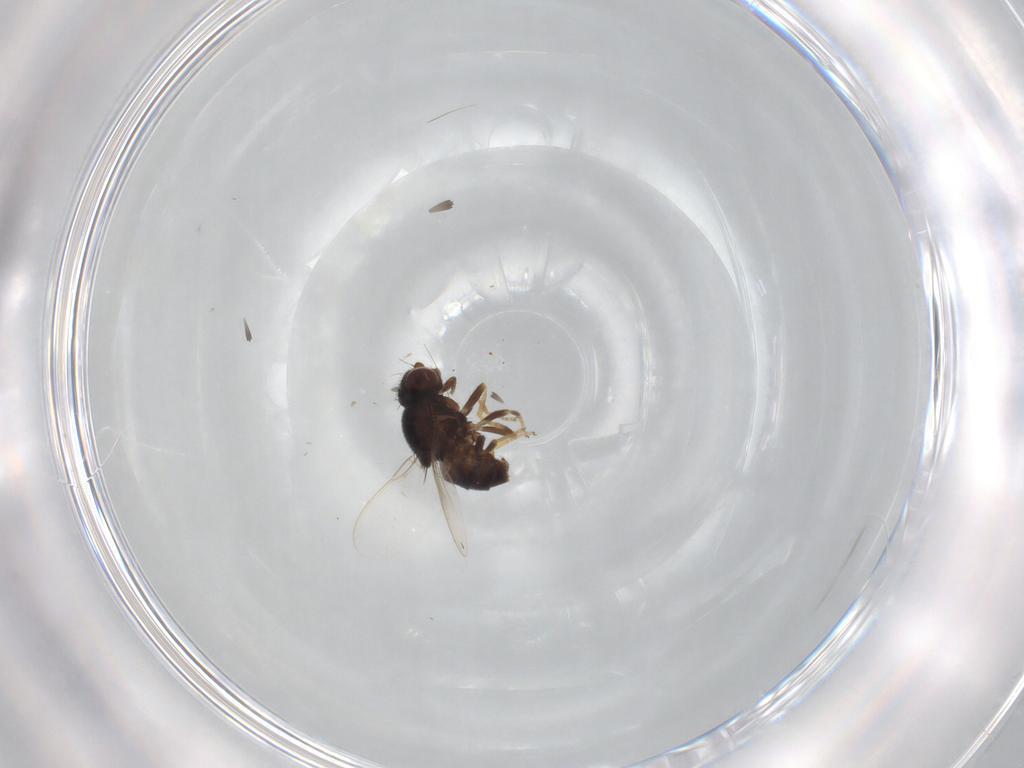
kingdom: Animalia
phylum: Arthropoda
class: Insecta
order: Diptera
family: Chloropidae
